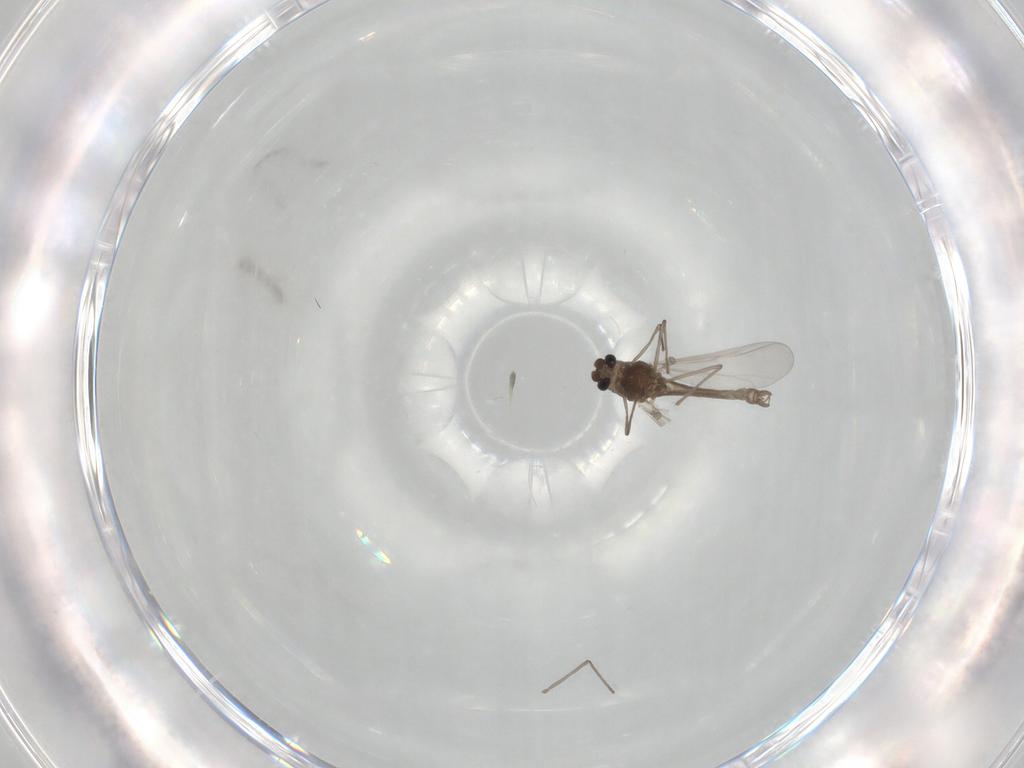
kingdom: Animalia
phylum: Arthropoda
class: Insecta
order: Diptera
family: Chironomidae
